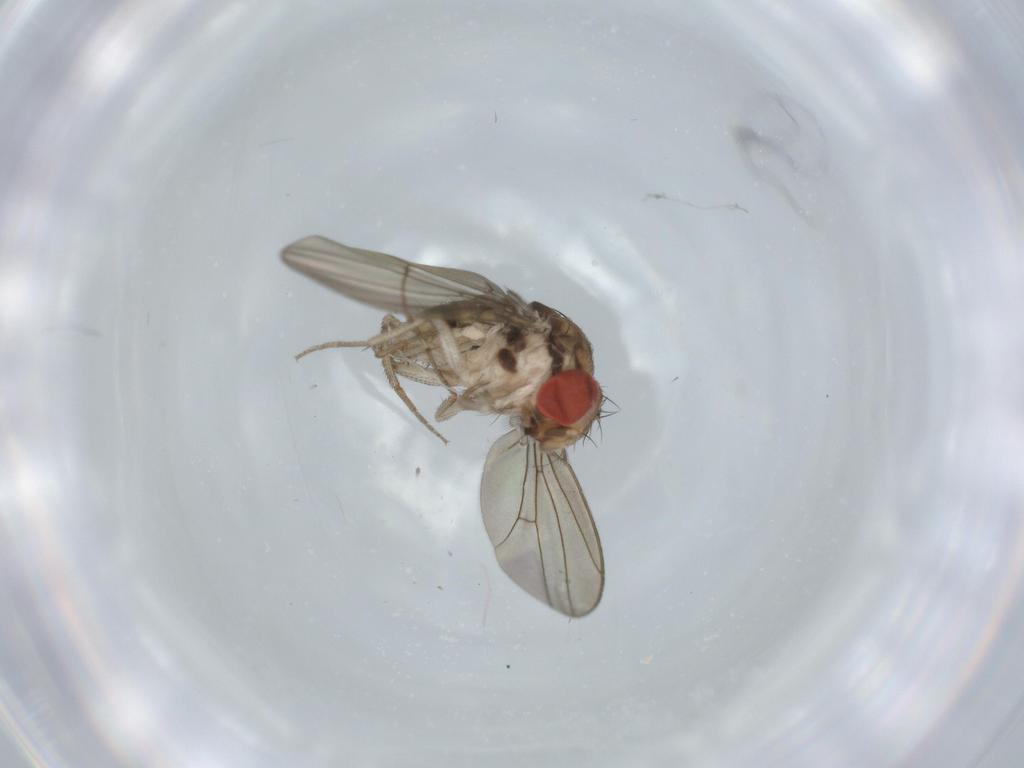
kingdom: Animalia
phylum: Arthropoda
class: Insecta
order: Diptera
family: Drosophilidae
